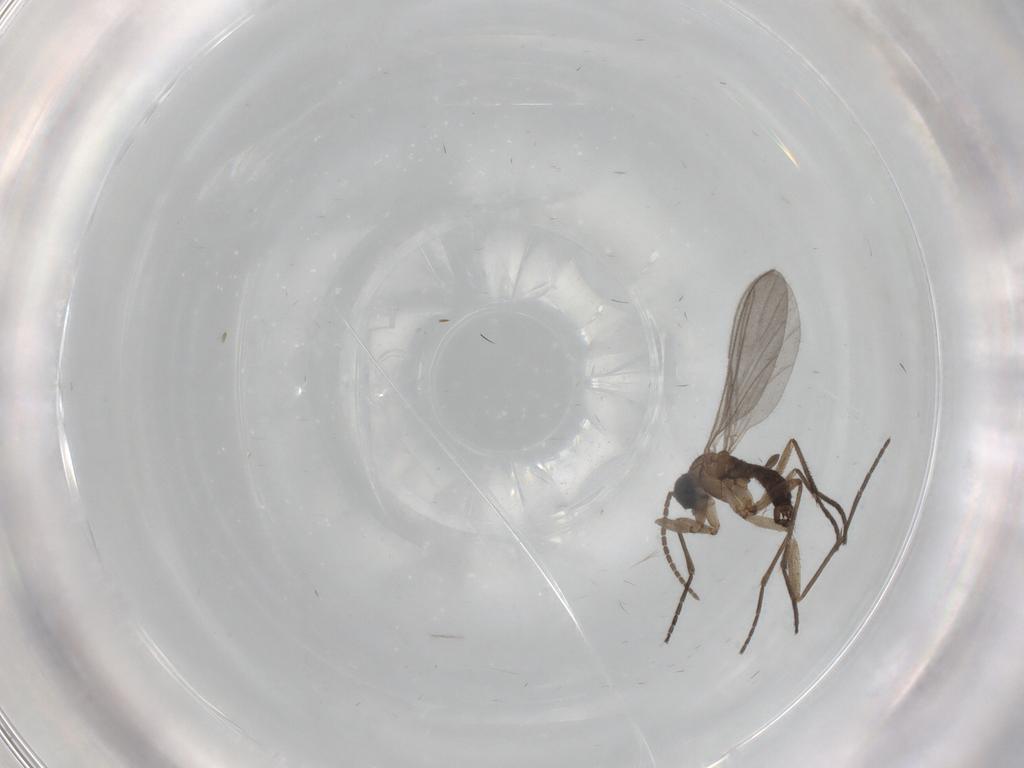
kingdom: Animalia
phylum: Arthropoda
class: Insecta
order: Diptera
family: Sciaridae
